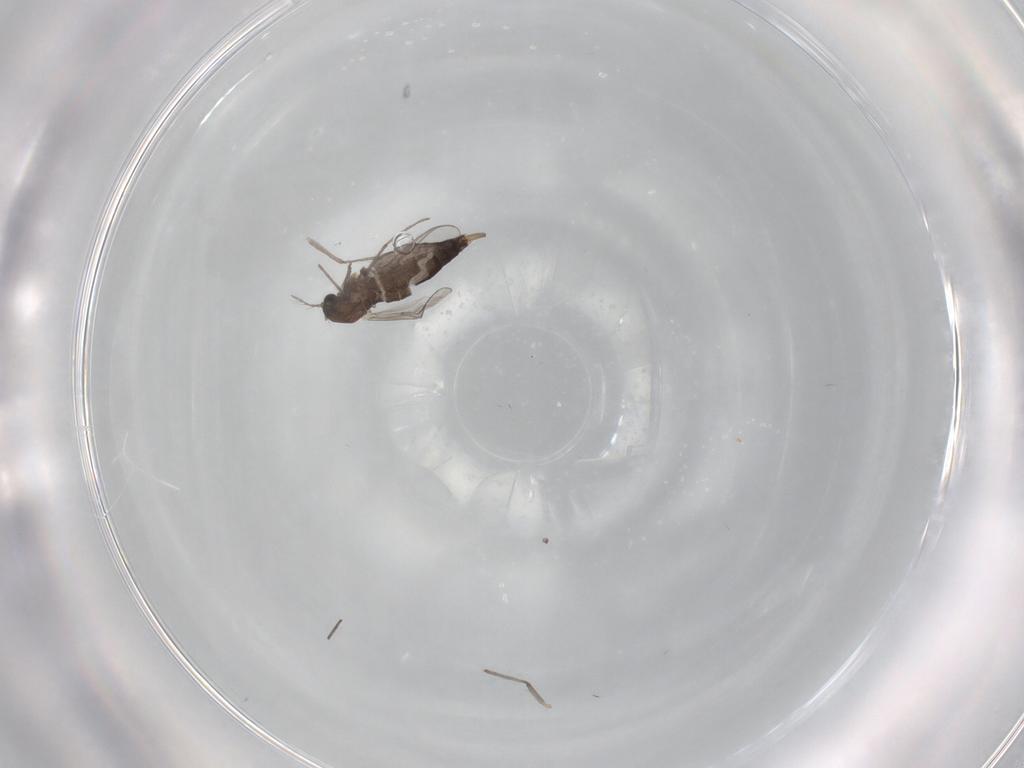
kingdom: Animalia
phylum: Arthropoda
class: Insecta
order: Diptera
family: Chironomidae
